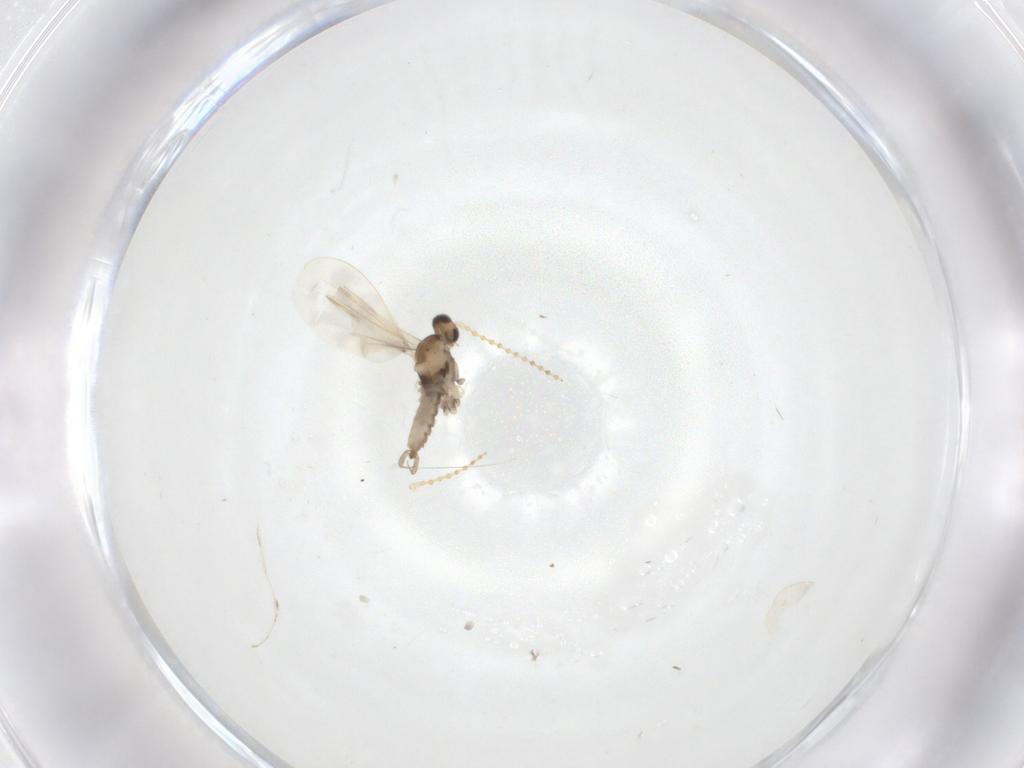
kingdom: Animalia
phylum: Arthropoda
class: Insecta
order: Diptera
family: Cecidomyiidae
